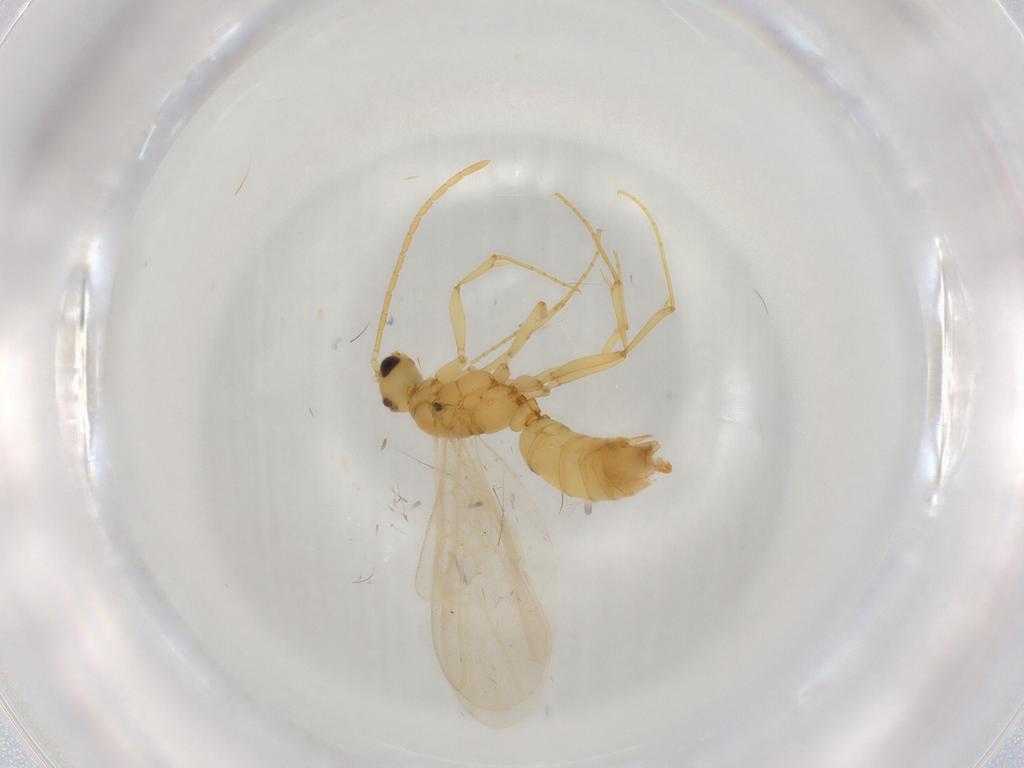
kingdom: Animalia
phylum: Arthropoda
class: Insecta
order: Hymenoptera
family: Formicidae
